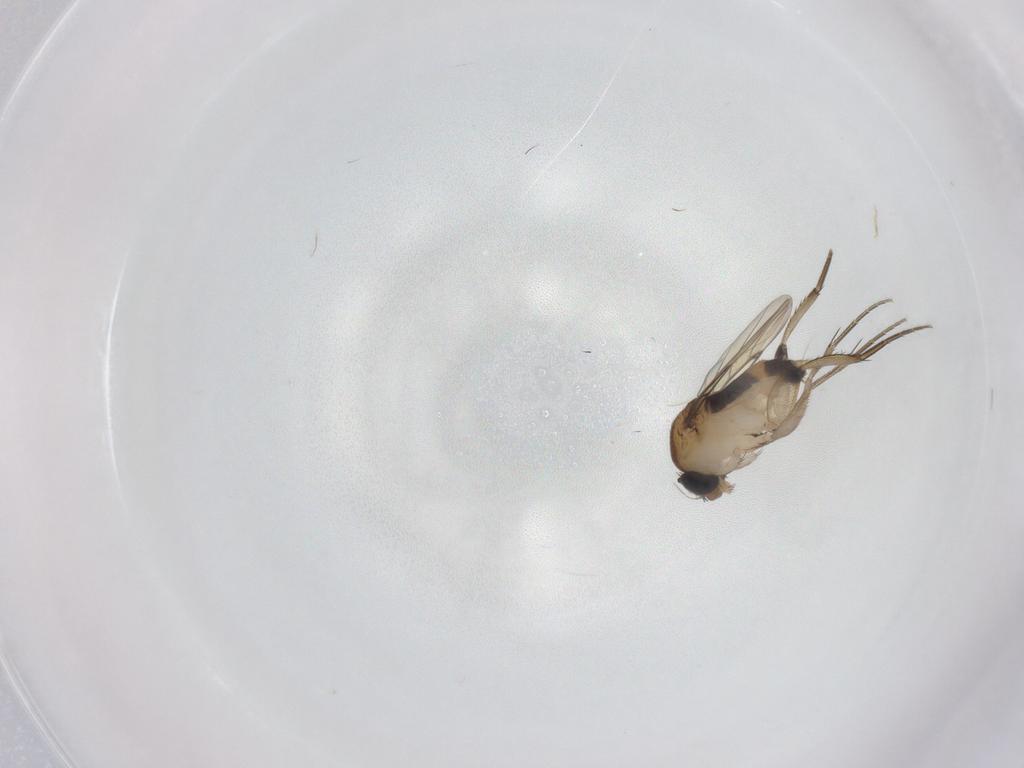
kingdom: Animalia
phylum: Arthropoda
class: Insecta
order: Diptera
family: Phoridae
